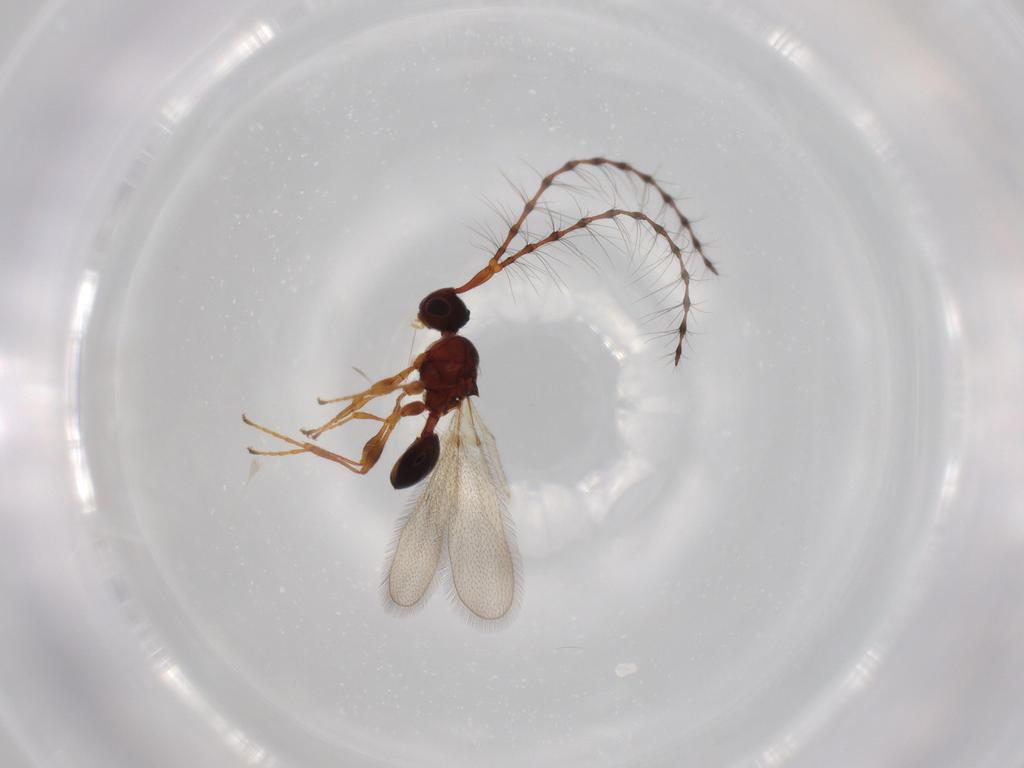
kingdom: Animalia
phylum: Arthropoda
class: Insecta
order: Hymenoptera
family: Diapriidae
